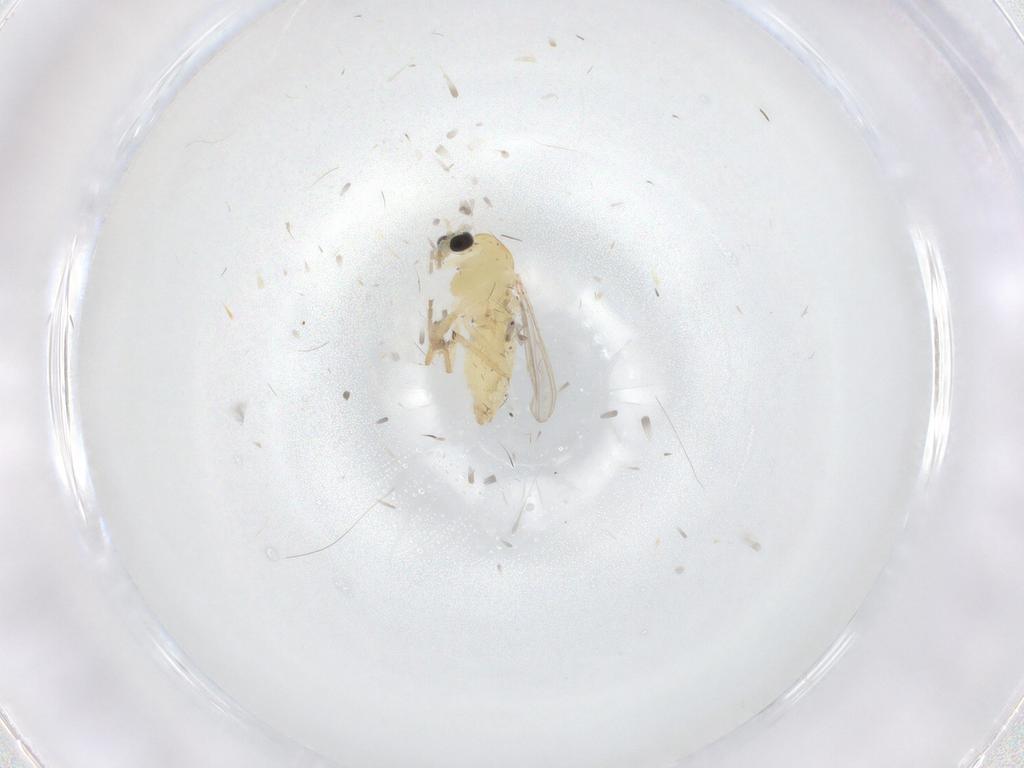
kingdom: Animalia
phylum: Arthropoda
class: Insecta
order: Diptera
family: Chironomidae
